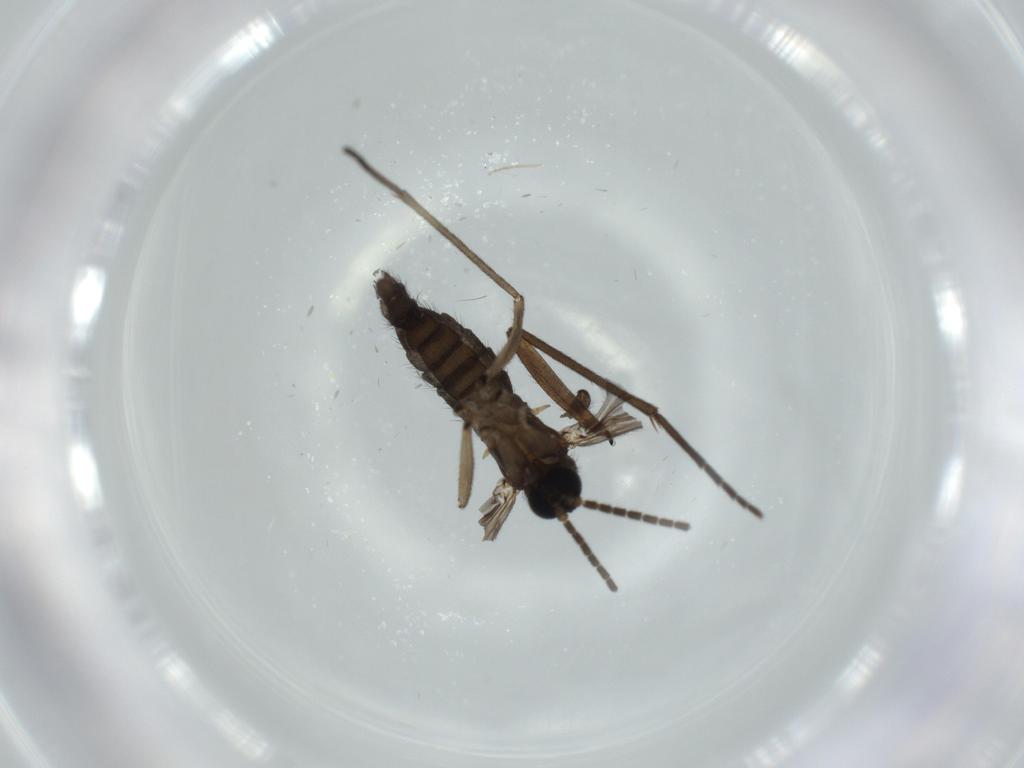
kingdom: Animalia
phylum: Arthropoda
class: Insecta
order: Diptera
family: Sciaridae
